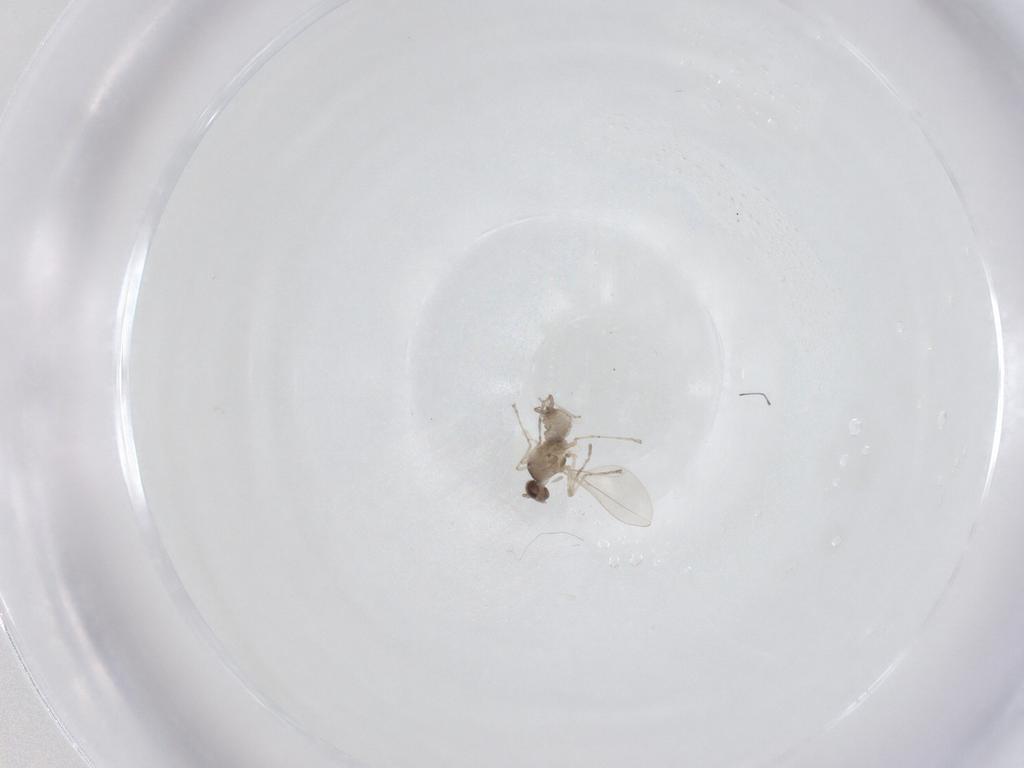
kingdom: Animalia
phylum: Arthropoda
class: Insecta
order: Diptera
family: Cecidomyiidae
